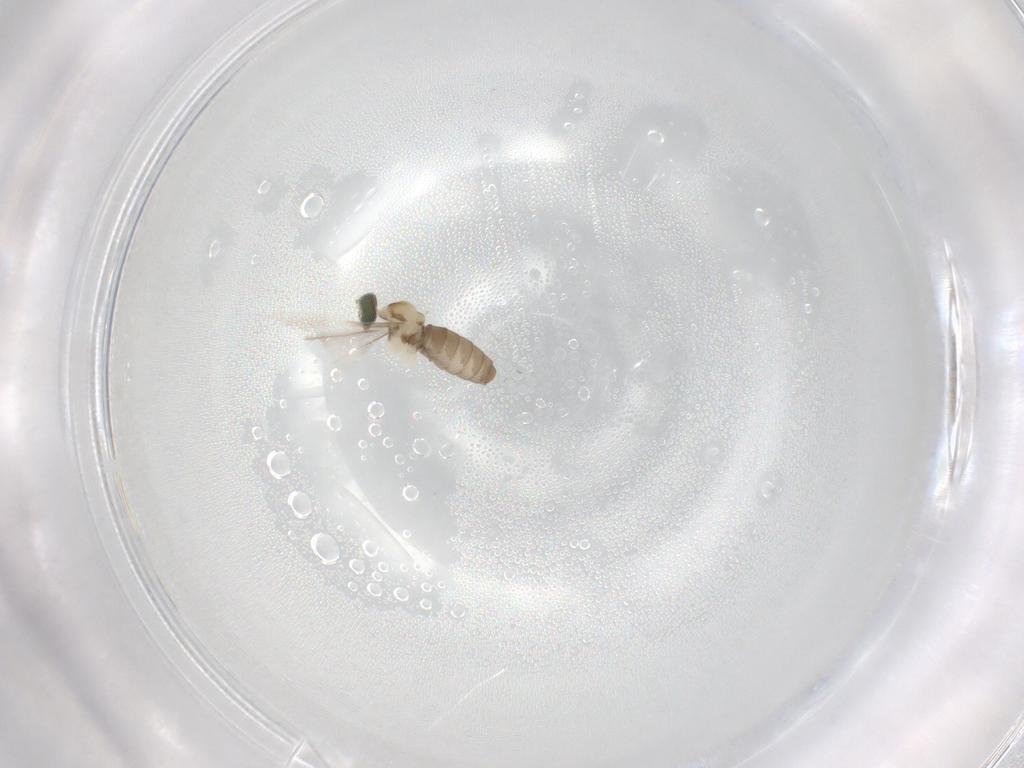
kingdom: Animalia
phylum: Arthropoda
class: Insecta
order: Diptera
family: Cecidomyiidae
